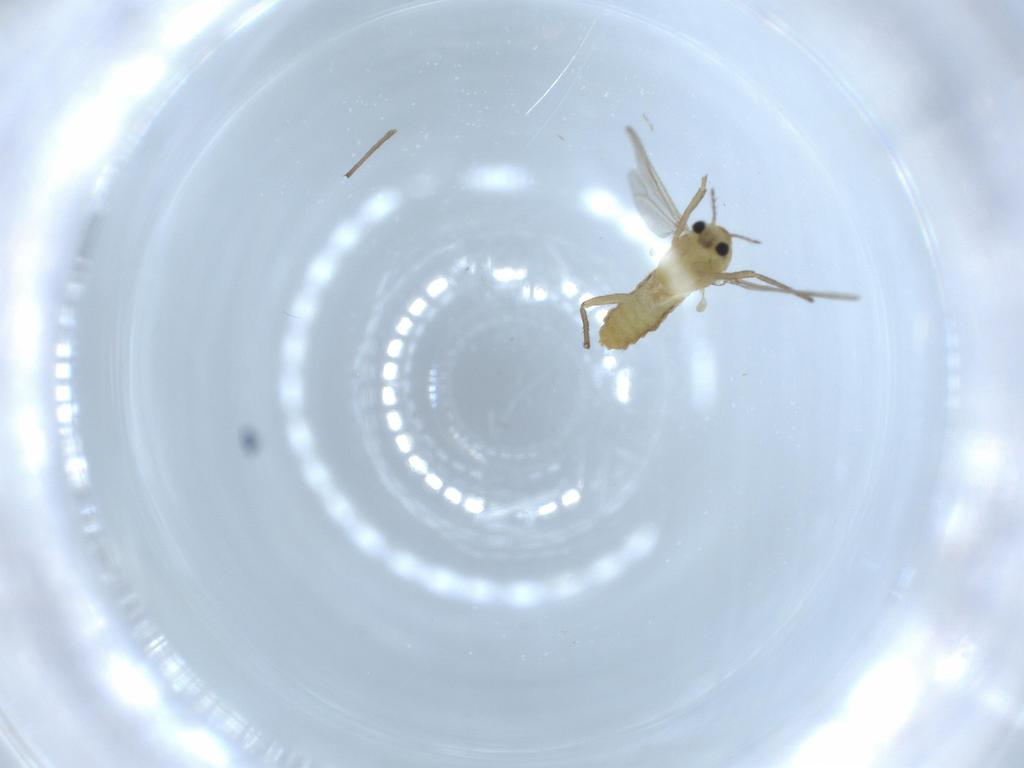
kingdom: Animalia
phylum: Arthropoda
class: Insecta
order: Diptera
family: Chironomidae
